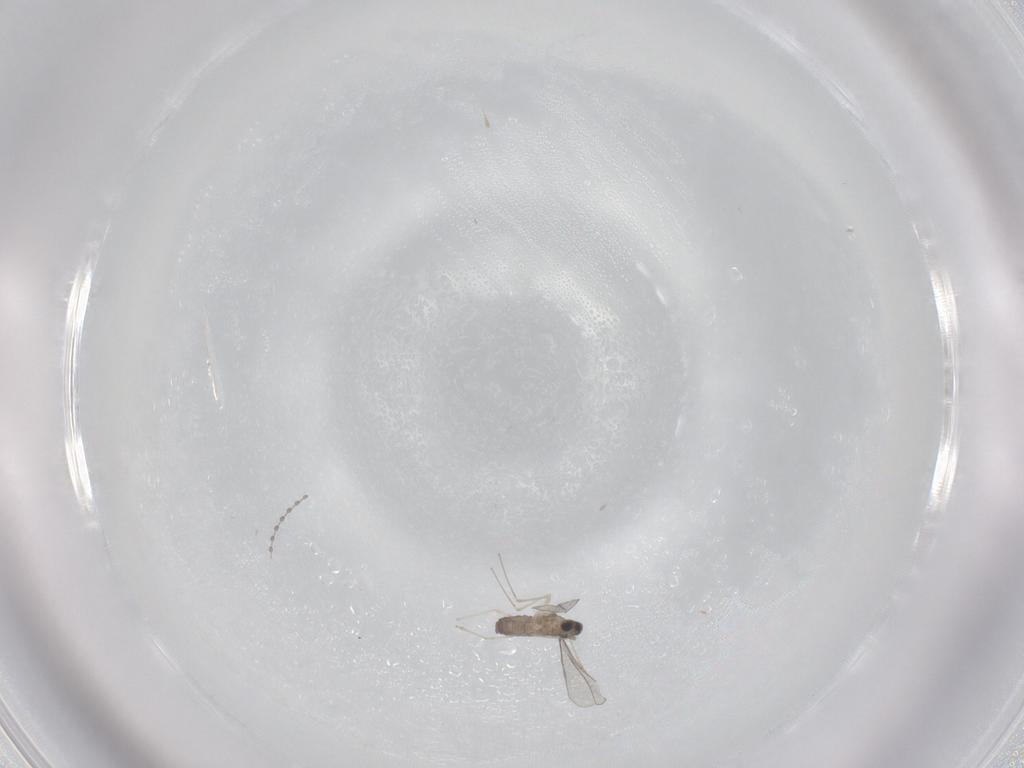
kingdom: Animalia
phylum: Arthropoda
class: Insecta
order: Diptera
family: Cecidomyiidae
